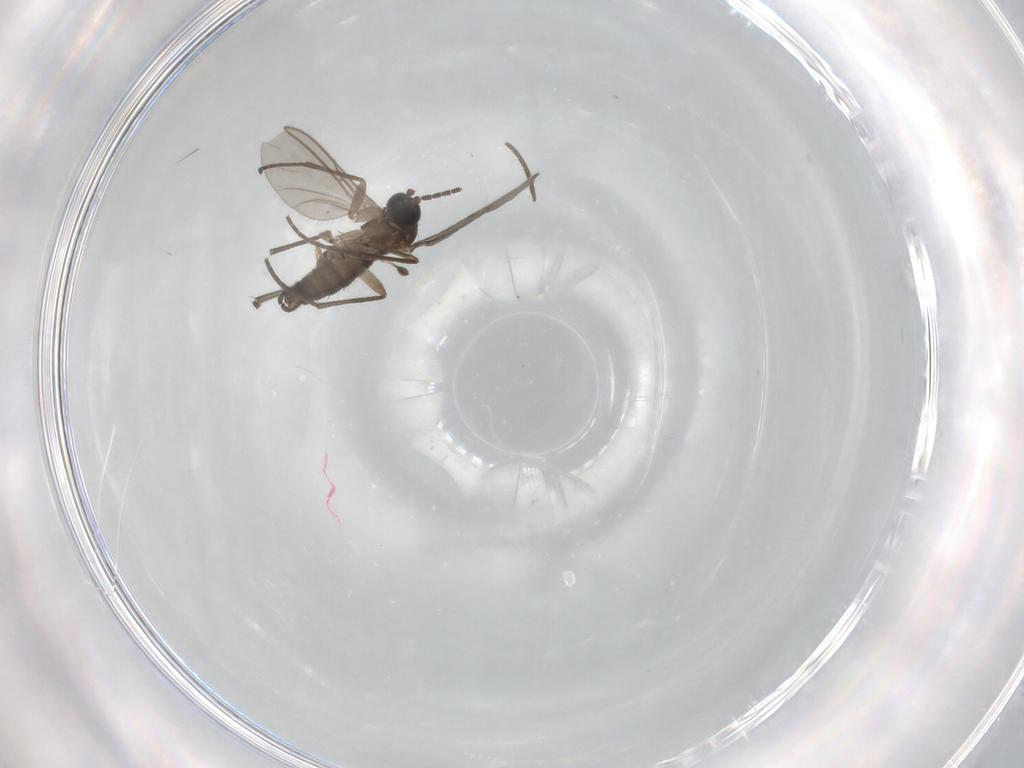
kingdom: Animalia
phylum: Arthropoda
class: Insecta
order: Diptera
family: Sciaridae
